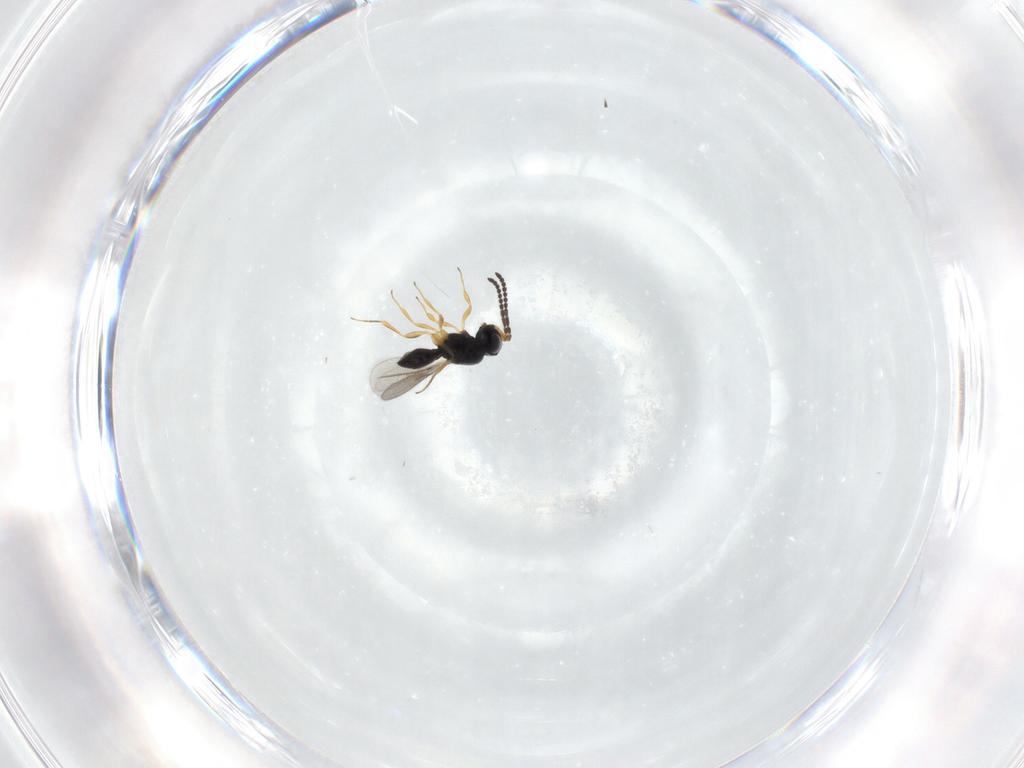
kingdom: Animalia
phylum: Arthropoda
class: Insecta
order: Hymenoptera
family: Scelionidae
